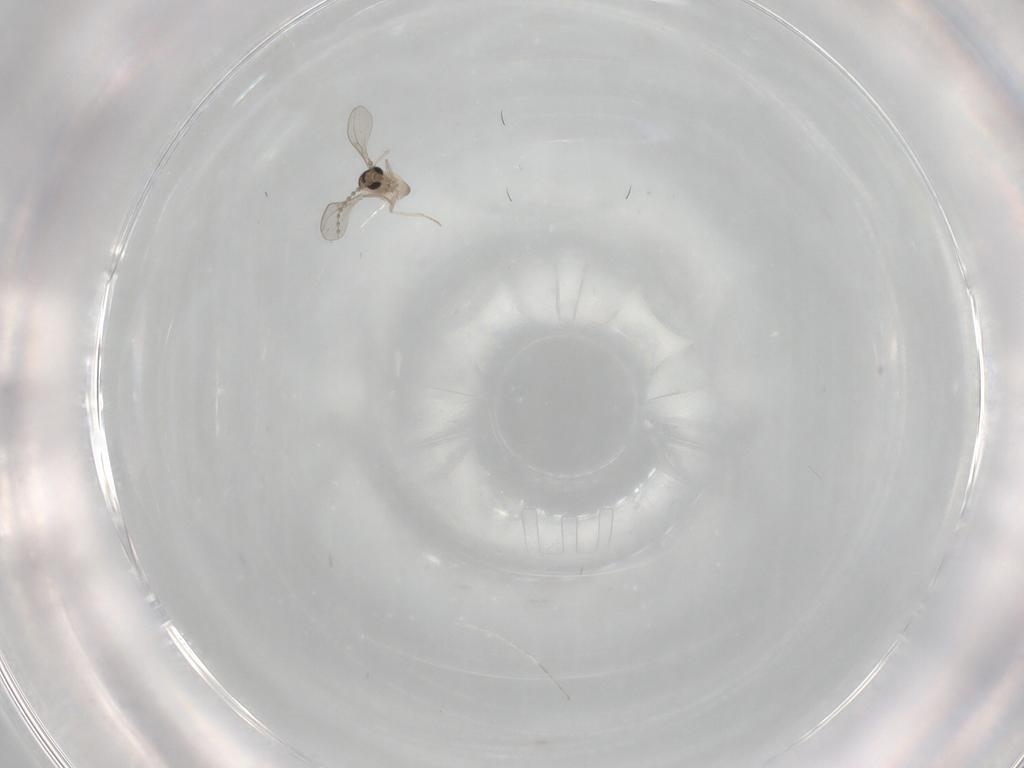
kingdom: Animalia
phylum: Arthropoda
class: Insecta
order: Diptera
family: Cecidomyiidae
